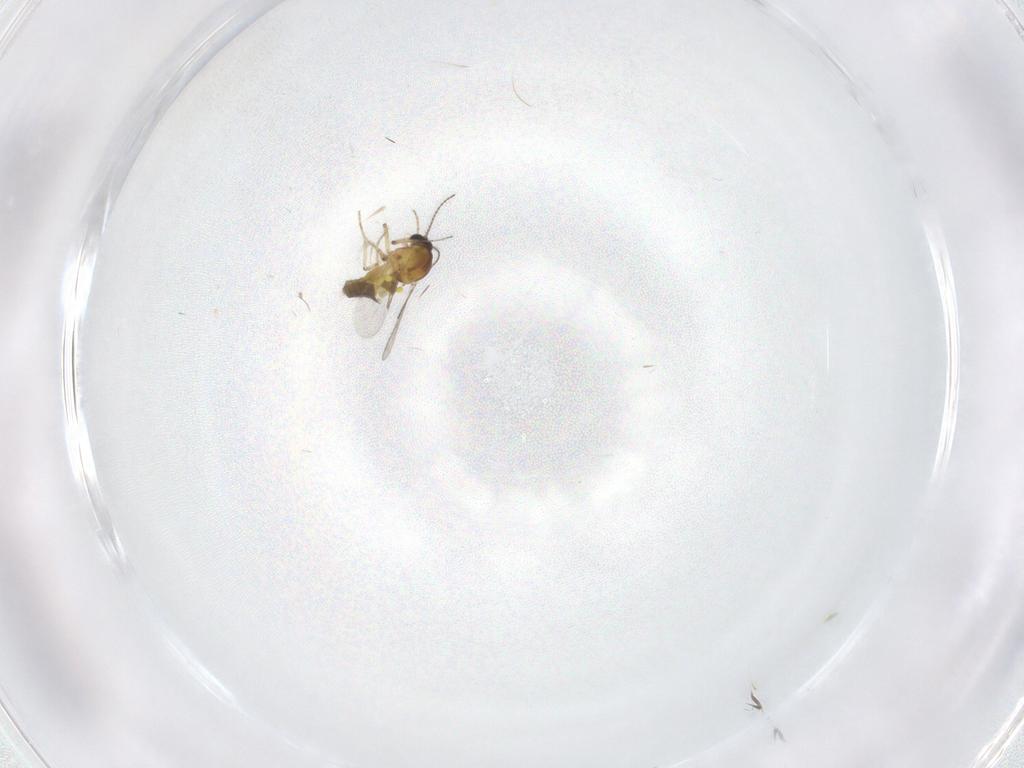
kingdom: Animalia
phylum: Arthropoda
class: Insecta
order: Diptera
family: Ceratopogonidae
